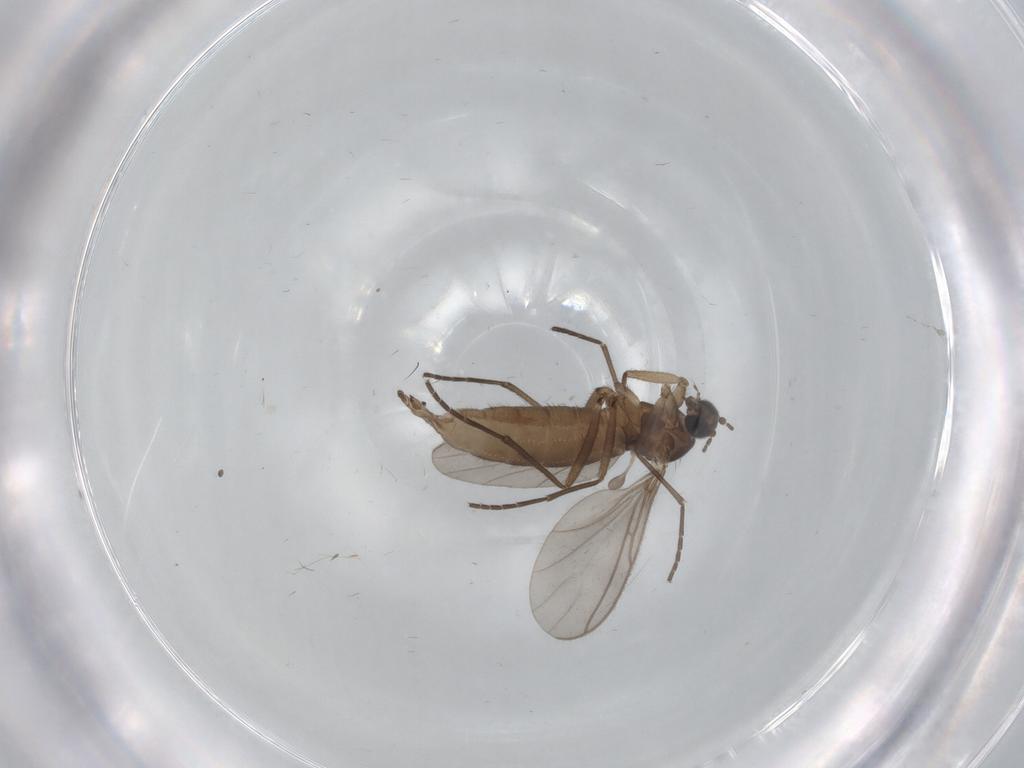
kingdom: Animalia
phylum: Arthropoda
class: Insecta
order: Diptera
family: Sciaridae
